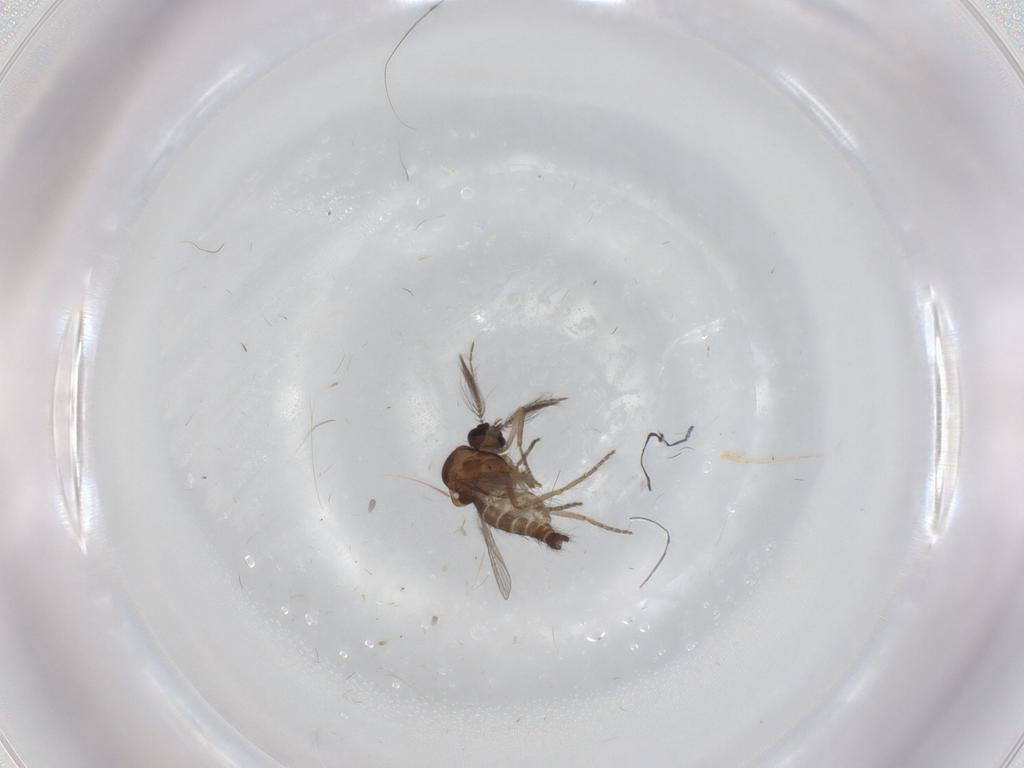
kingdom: Animalia
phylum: Arthropoda
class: Insecta
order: Diptera
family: Chironomidae
